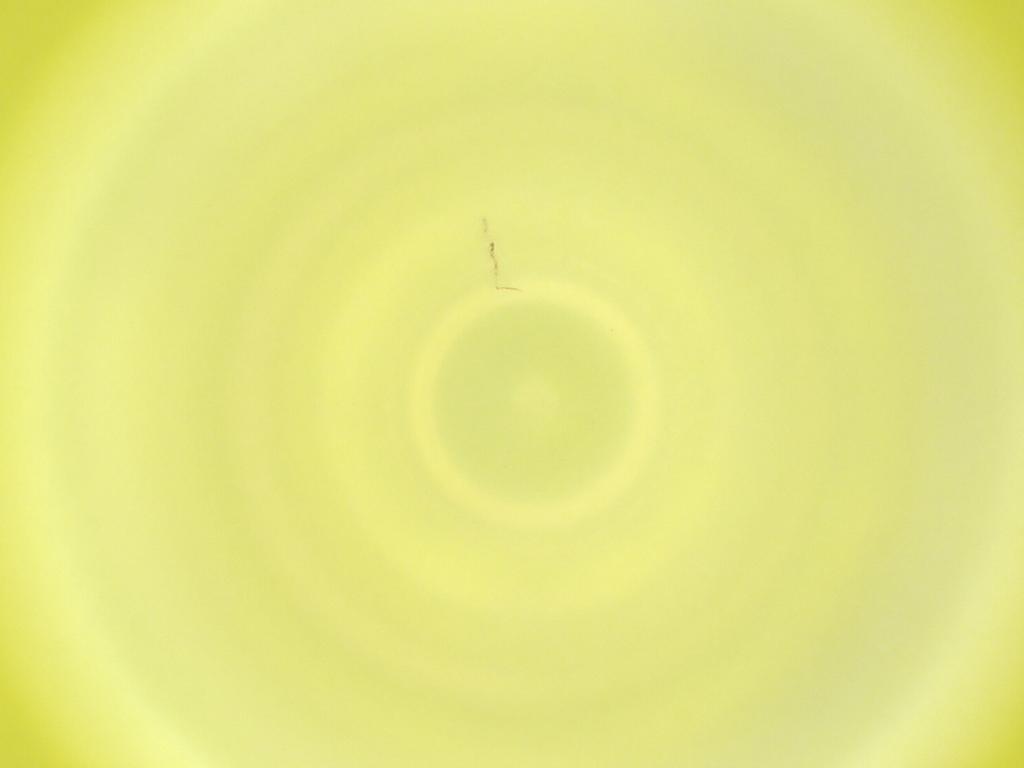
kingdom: Animalia
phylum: Arthropoda
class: Insecta
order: Diptera
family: Cecidomyiidae
